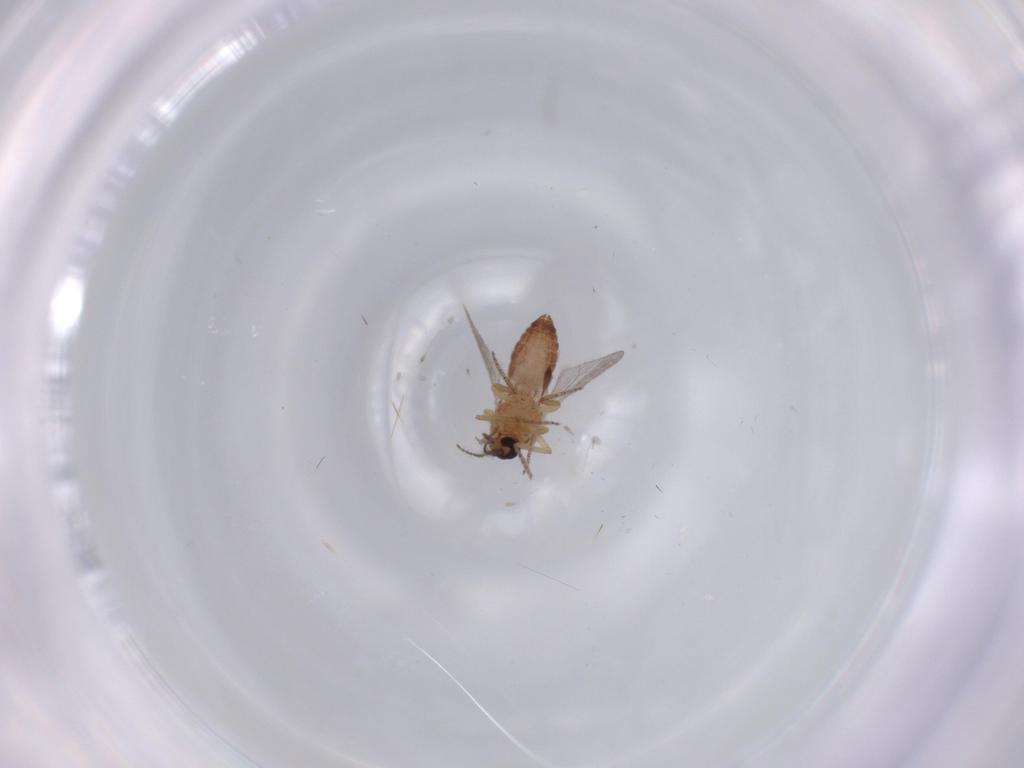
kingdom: Animalia
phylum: Arthropoda
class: Insecta
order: Diptera
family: Ceratopogonidae
